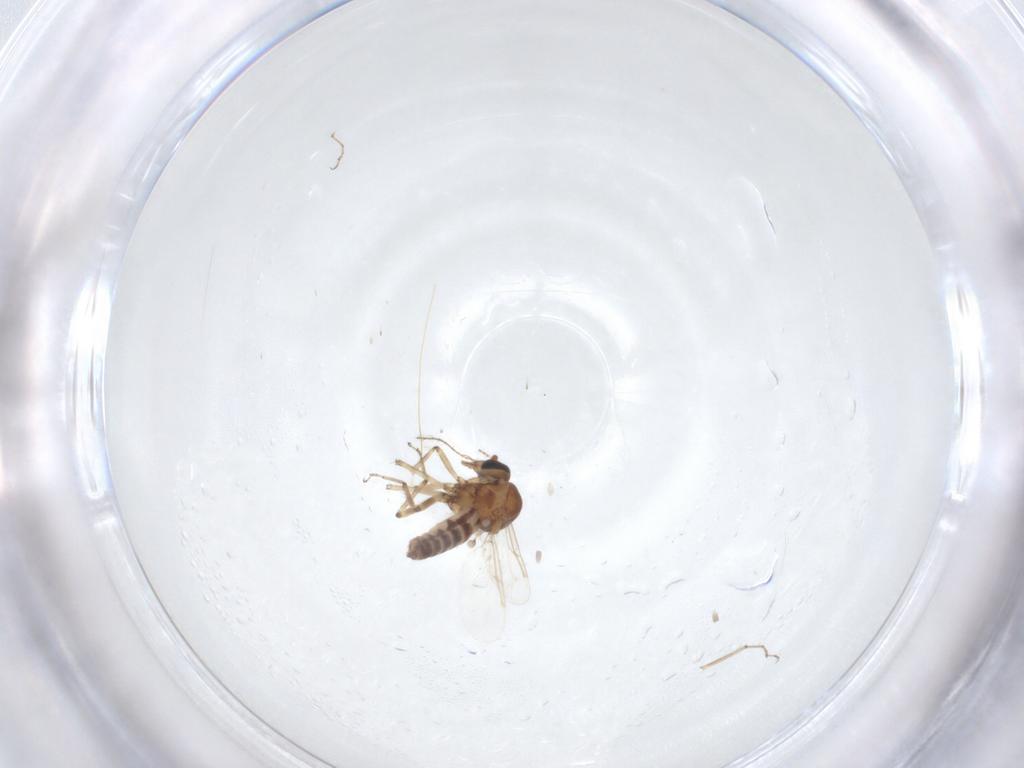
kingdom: Animalia
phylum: Arthropoda
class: Insecta
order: Diptera
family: Ceratopogonidae
